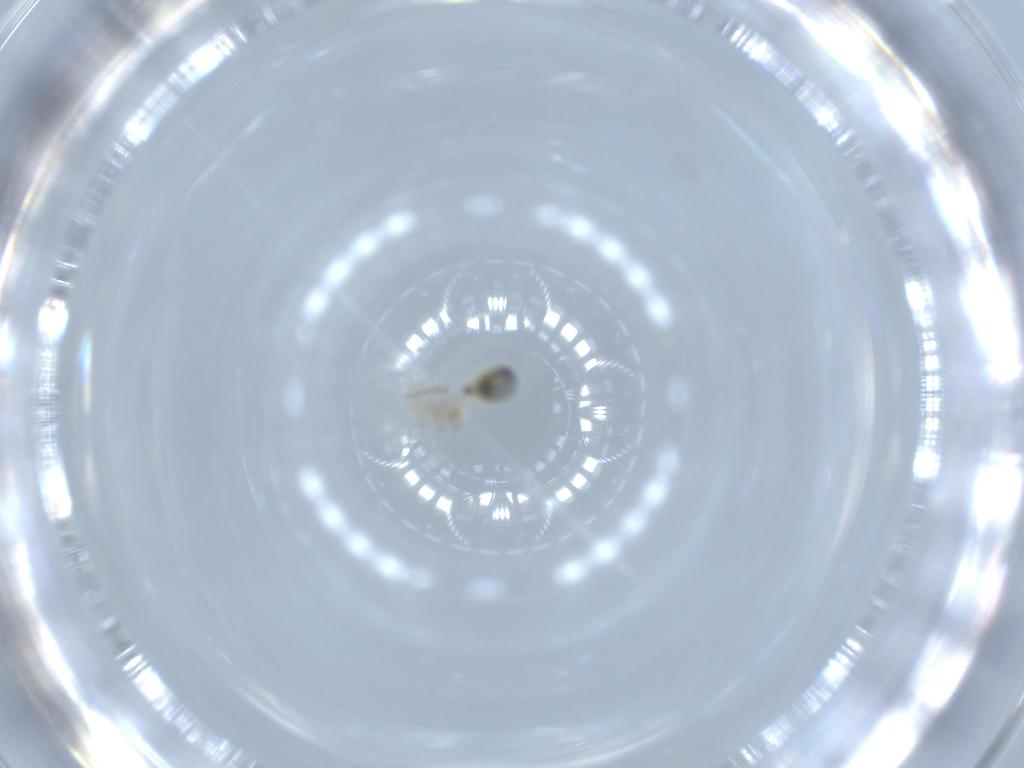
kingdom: Animalia
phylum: Arthropoda
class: Insecta
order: Psocodea
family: Caeciliusidae
